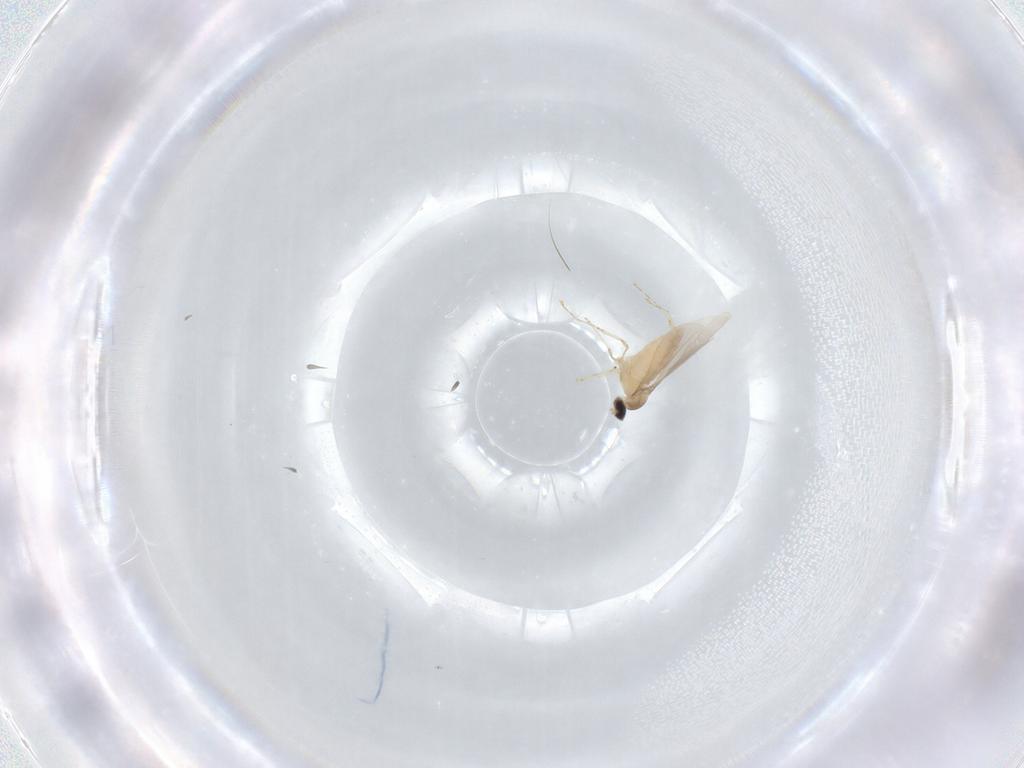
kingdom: Animalia
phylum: Arthropoda
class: Insecta
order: Diptera
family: Cecidomyiidae
